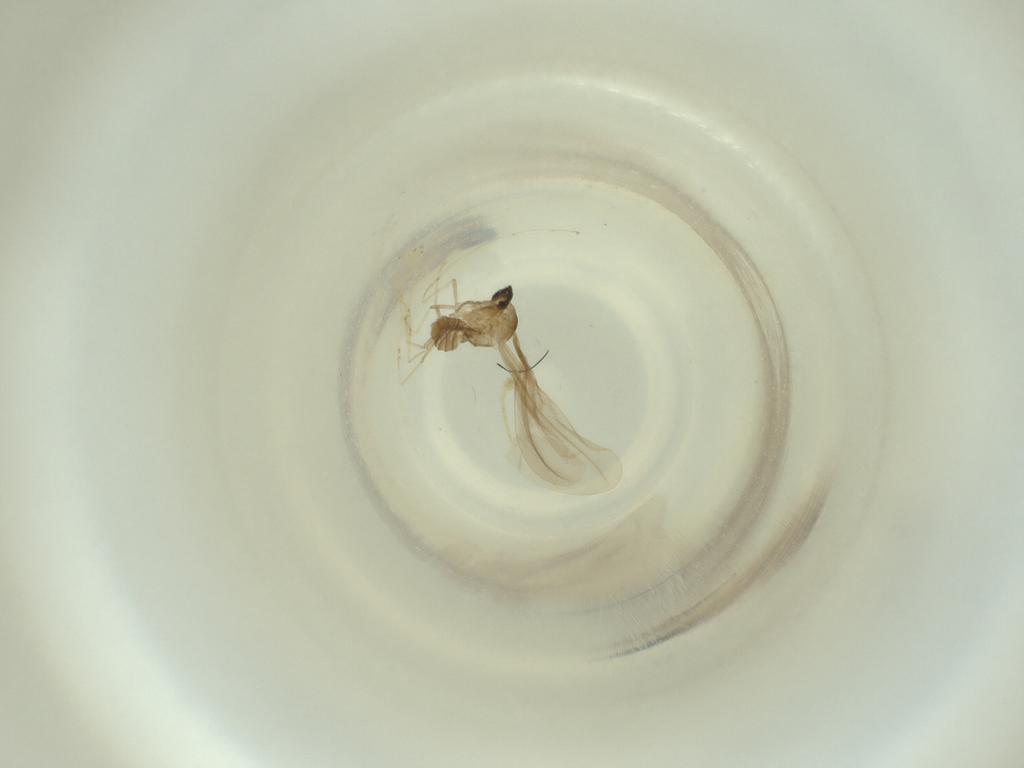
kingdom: Animalia
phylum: Arthropoda
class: Insecta
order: Diptera
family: Cecidomyiidae
